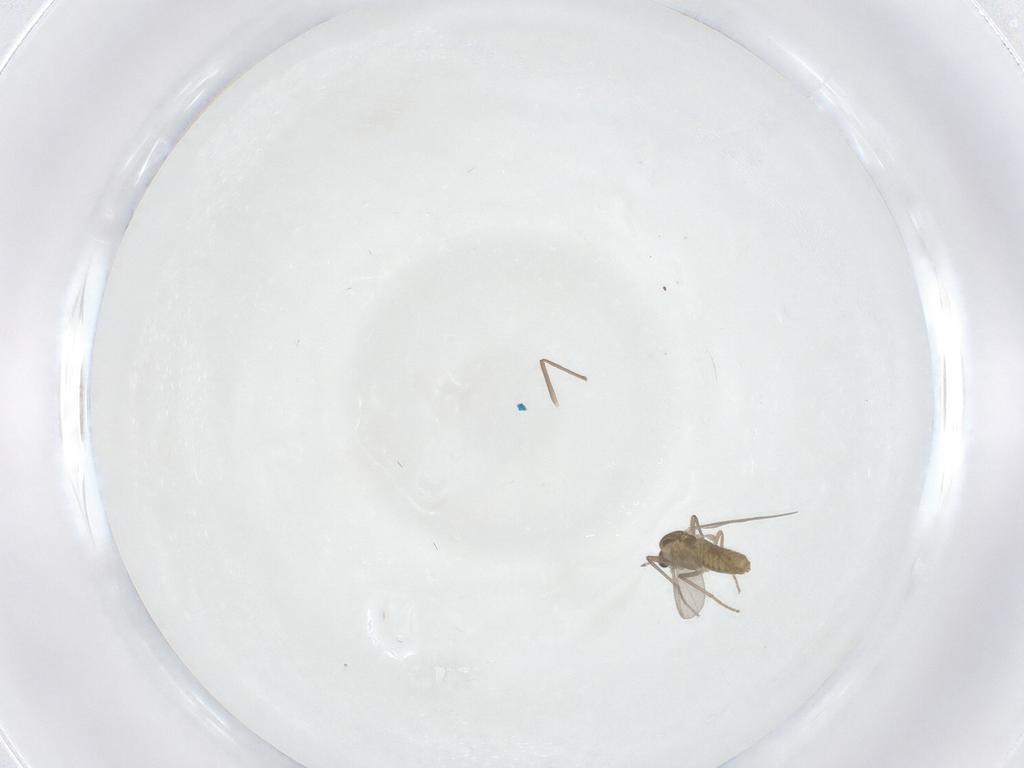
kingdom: Animalia
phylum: Arthropoda
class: Insecta
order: Diptera
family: Chironomidae
